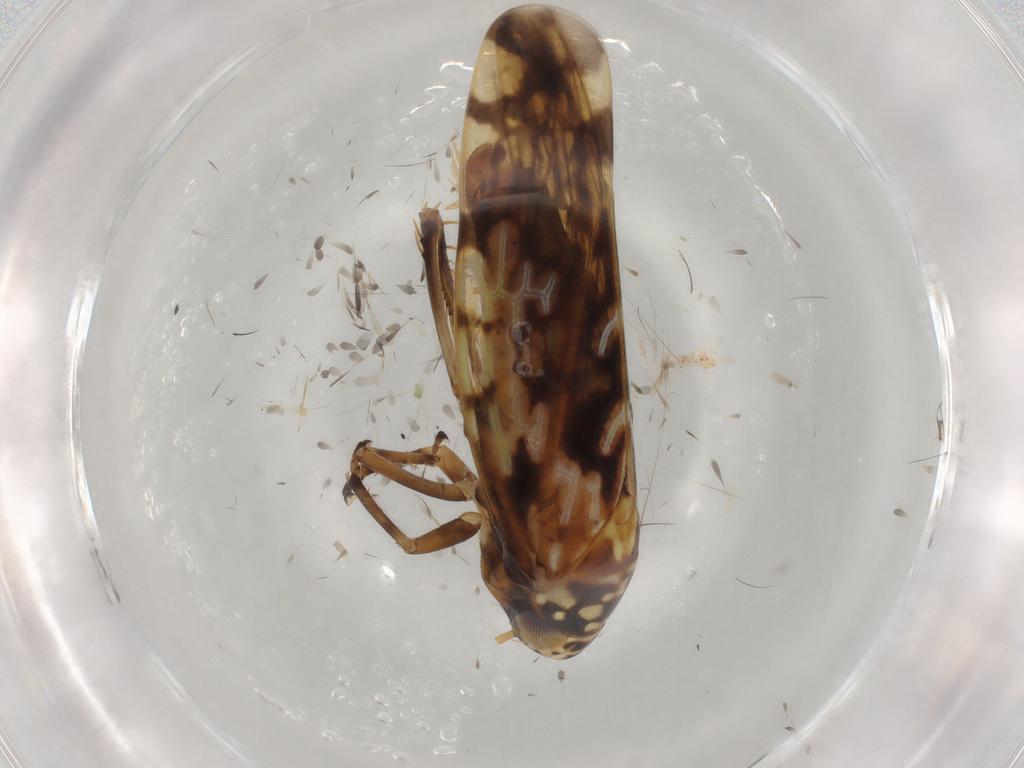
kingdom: Animalia
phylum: Arthropoda
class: Insecta
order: Hemiptera
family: Cicadellidae
